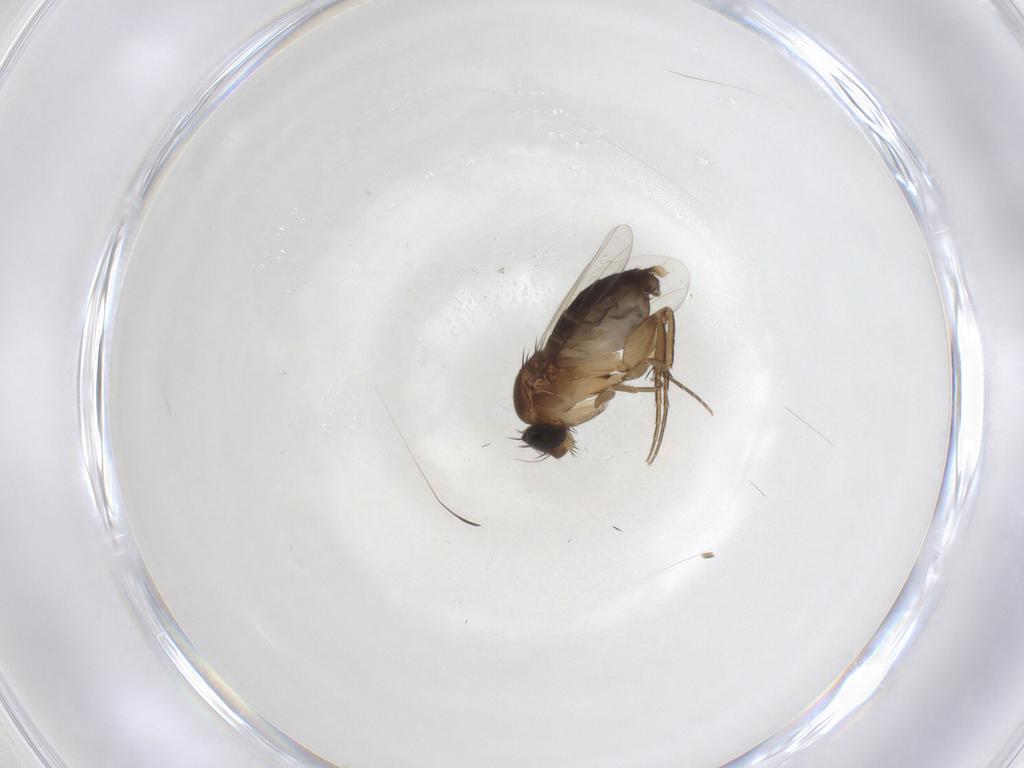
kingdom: Animalia
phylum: Arthropoda
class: Insecta
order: Diptera
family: Phoridae
